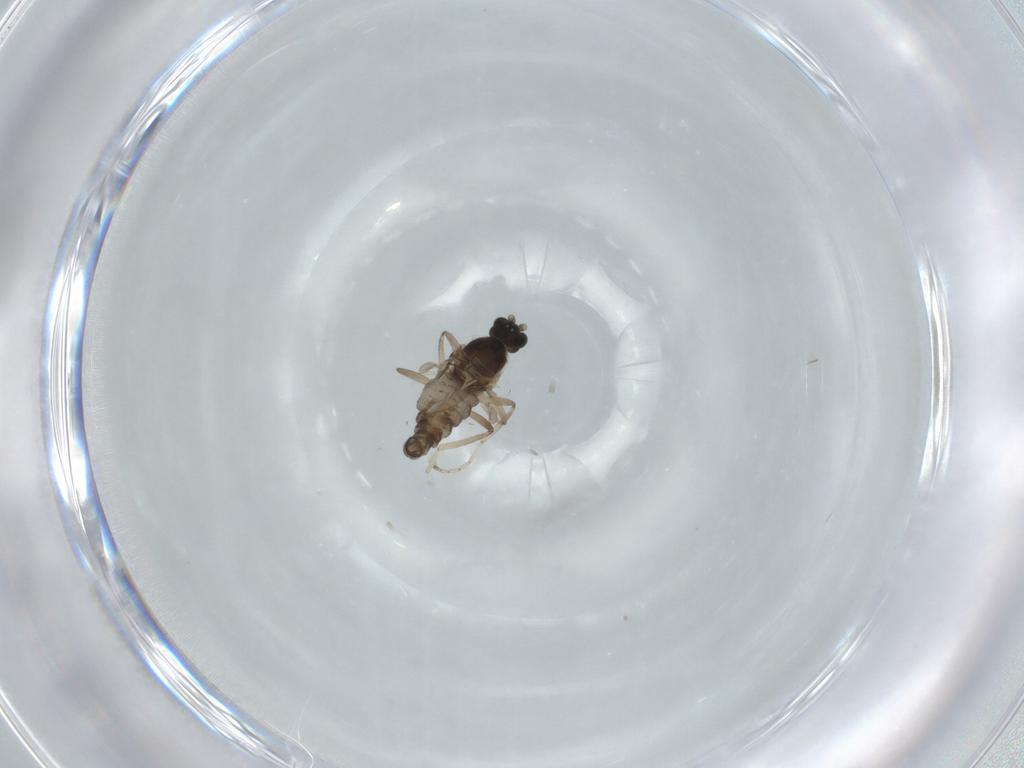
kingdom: Animalia
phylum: Arthropoda
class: Insecta
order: Diptera
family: Cecidomyiidae
